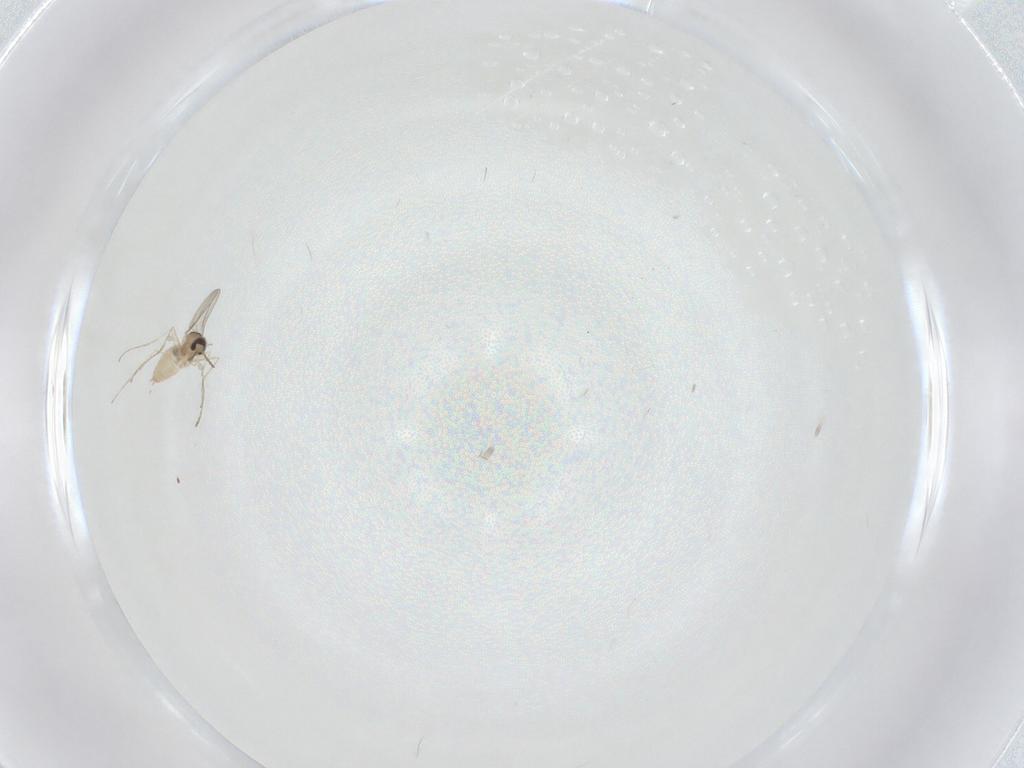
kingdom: Animalia
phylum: Arthropoda
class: Insecta
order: Diptera
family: Cecidomyiidae
